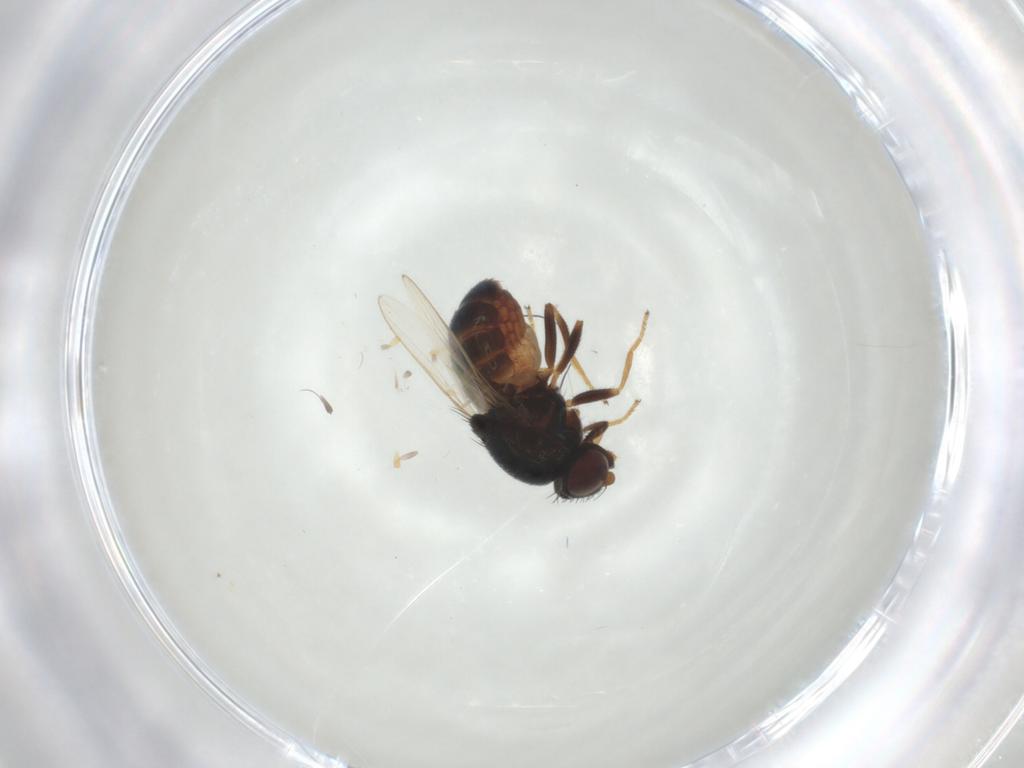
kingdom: Animalia
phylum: Arthropoda
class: Insecta
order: Diptera
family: Chloropidae
